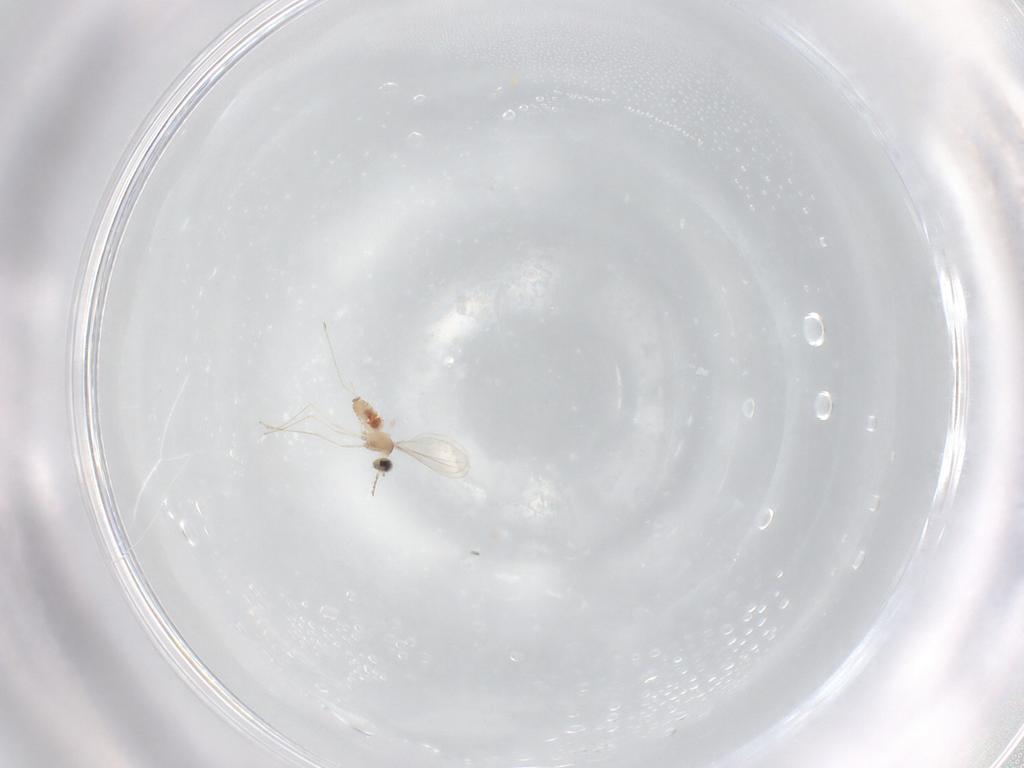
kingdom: Animalia
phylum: Arthropoda
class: Insecta
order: Diptera
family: Cecidomyiidae
